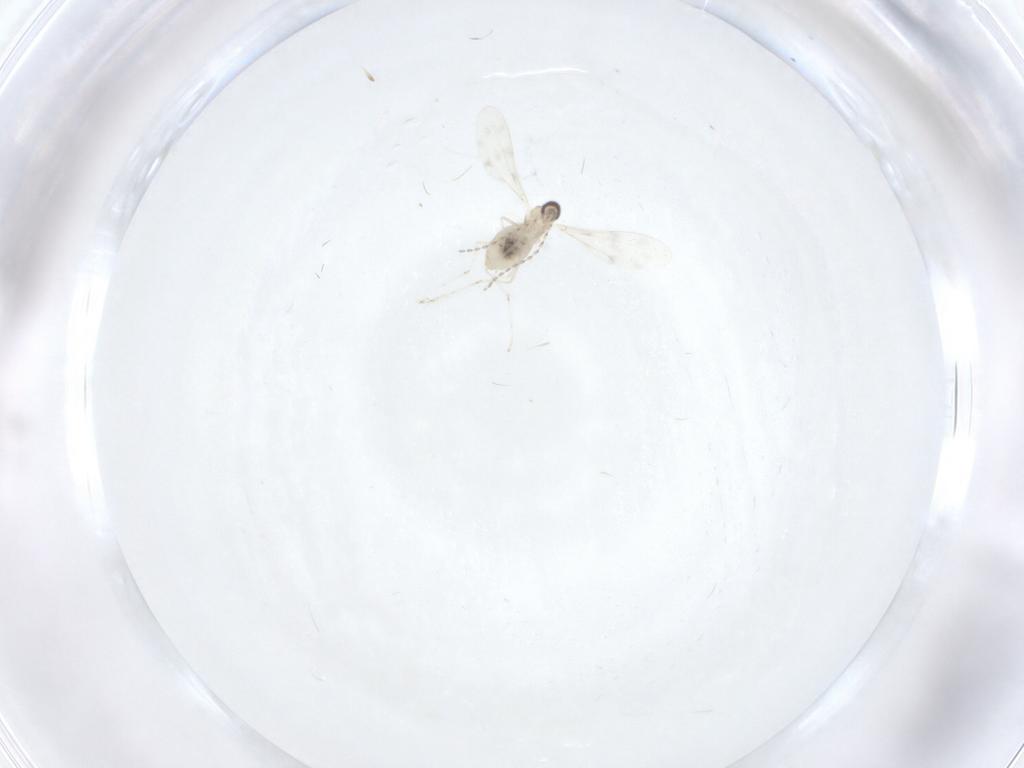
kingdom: Animalia
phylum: Arthropoda
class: Insecta
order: Diptera
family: Cecidomyiidae
